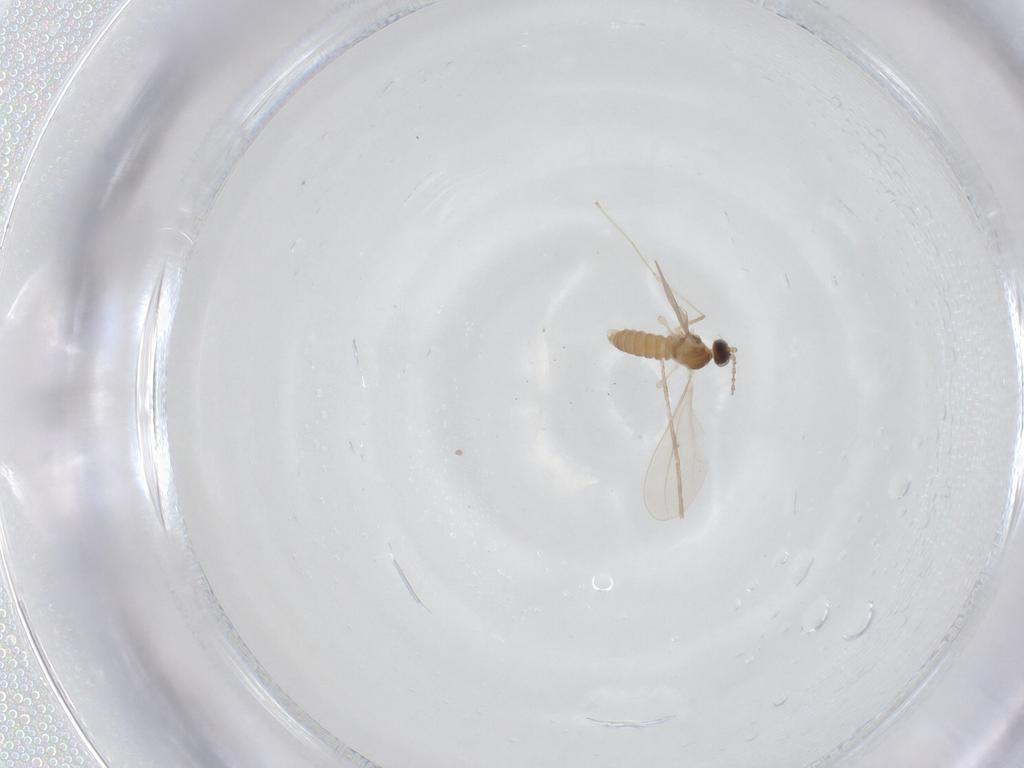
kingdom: Animalia
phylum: Arthropoda
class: Insecta
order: Diptera
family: Cecidomyiidae
